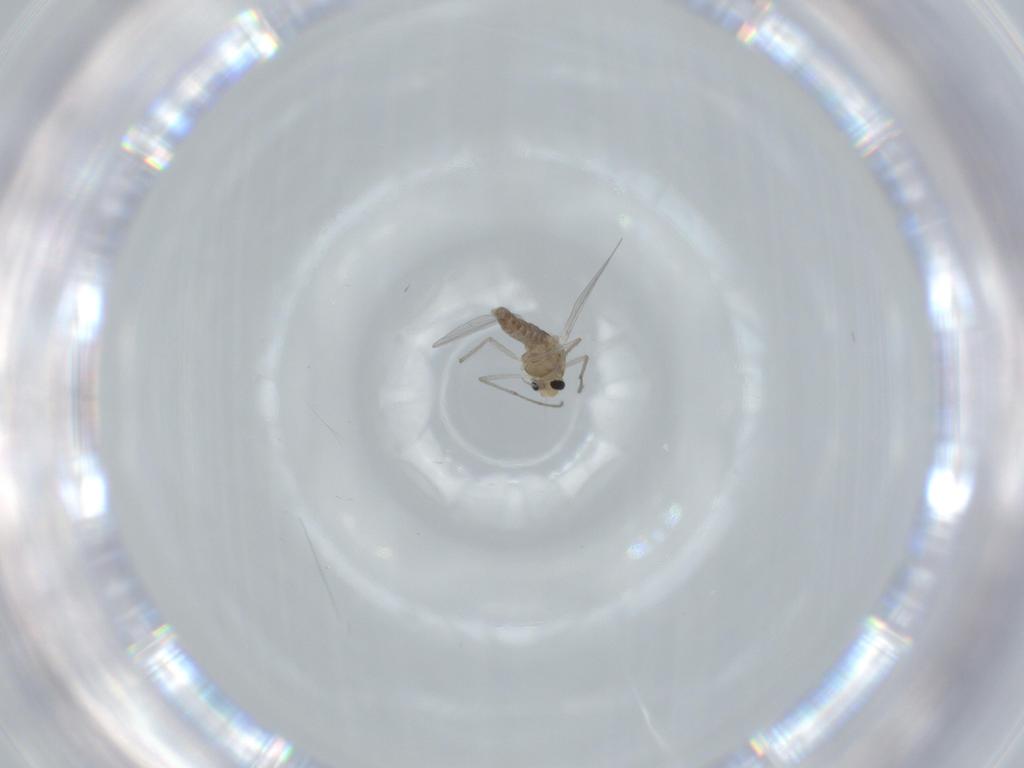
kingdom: Animalia
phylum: Arthropoda
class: Insecta
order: Diptera
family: Chironomidae
